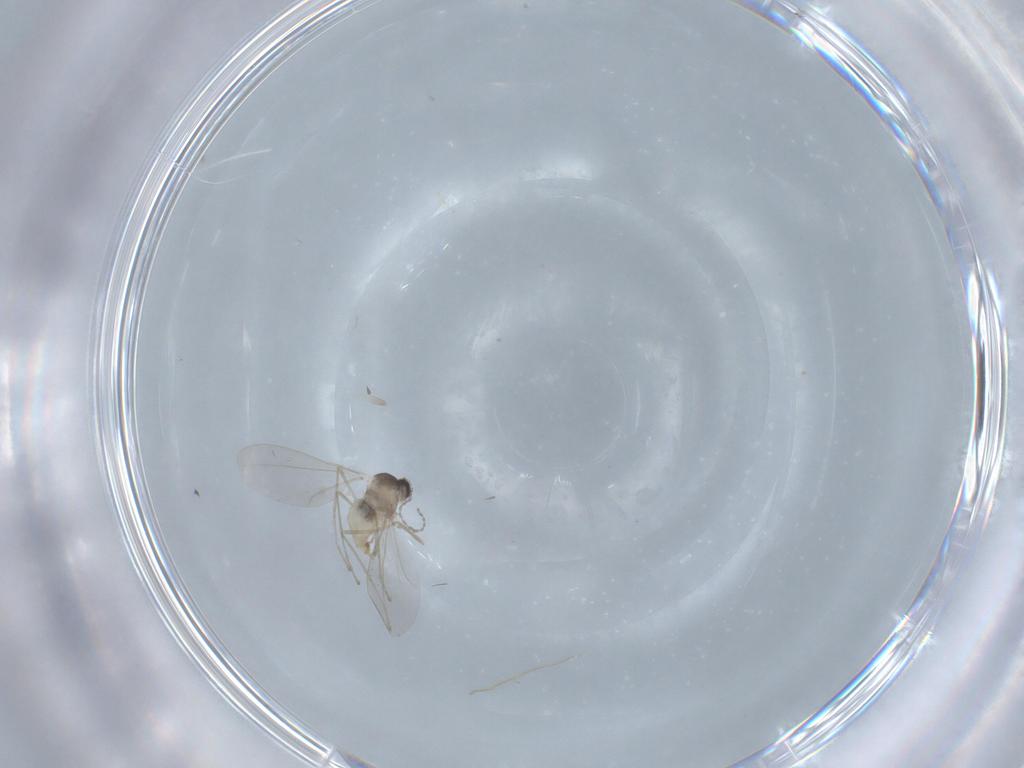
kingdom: Animalia
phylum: Arthropoda
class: Insecta
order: Diptera
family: Cecidomyiidae
